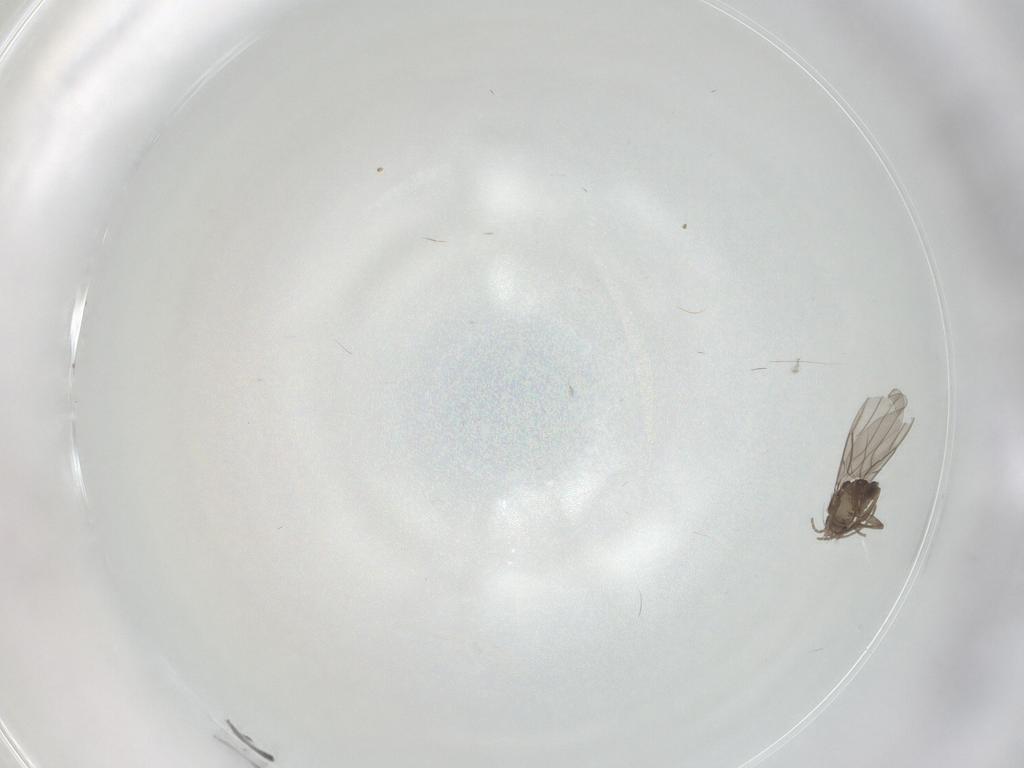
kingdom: Animalia
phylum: Arthropoda
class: Insecta
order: Diptera
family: Psychodidae
